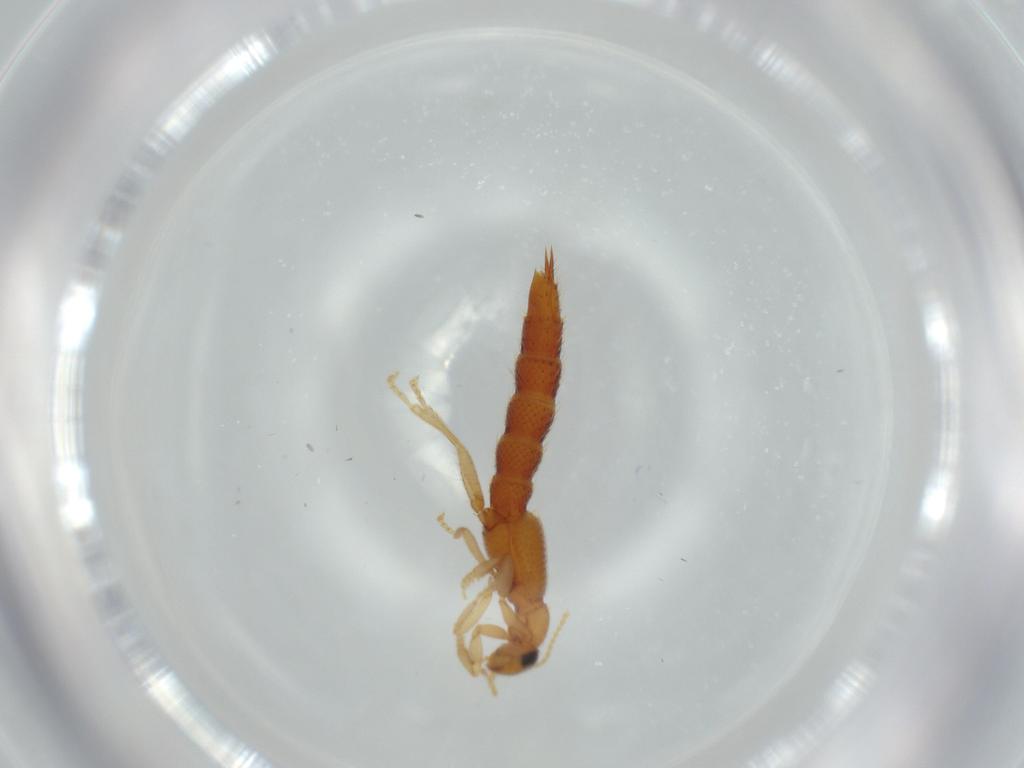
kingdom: Animalia
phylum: Arthropoda
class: Insecta
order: Coleoptera
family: Staphylinidae
